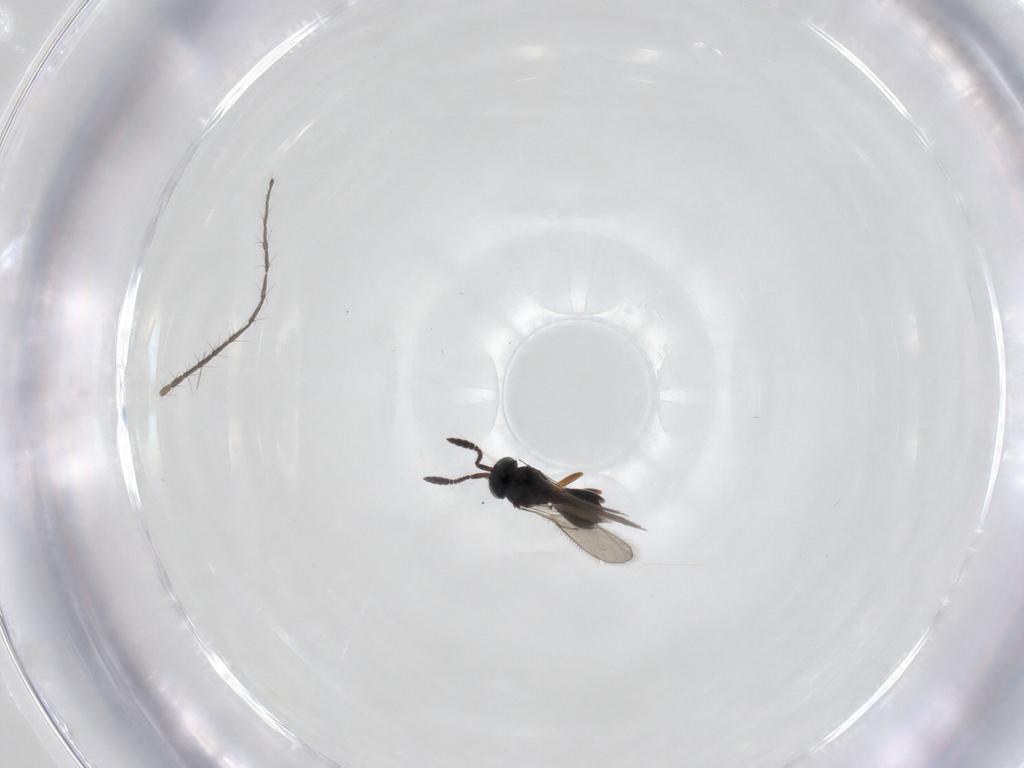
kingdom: Animalia
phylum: Arthropoda
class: Insecta
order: Hymenoptera
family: Scelionidae
